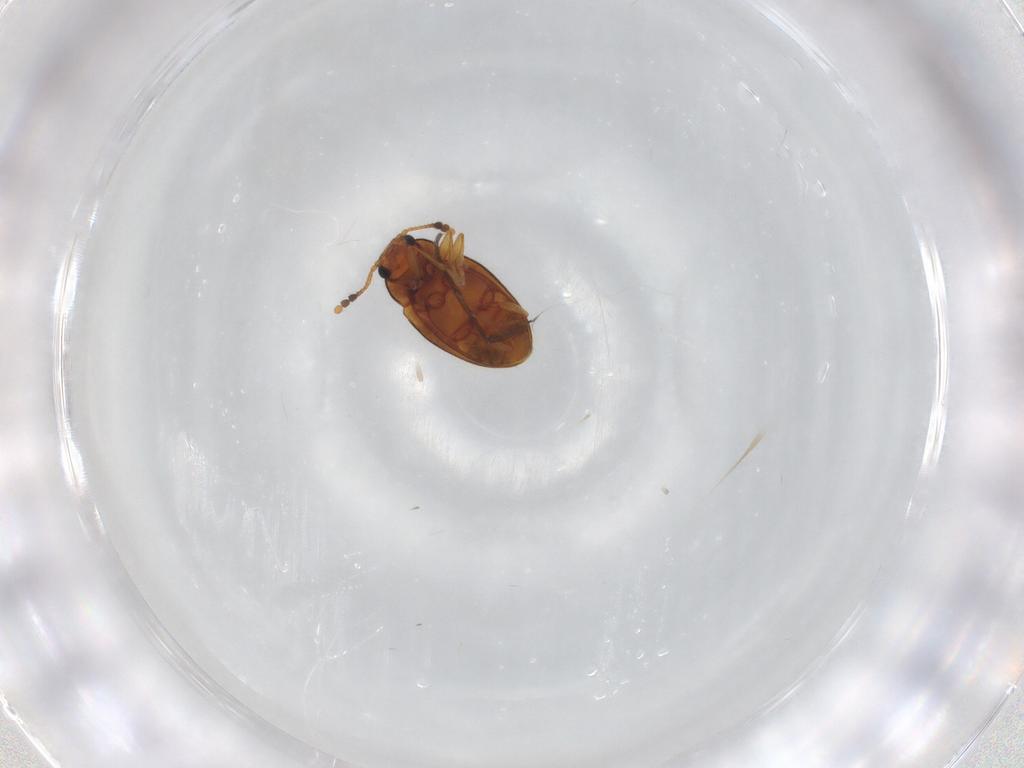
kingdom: Animalia
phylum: Arthropoda
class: Insecta
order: Coleoptera
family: Erotylidae
